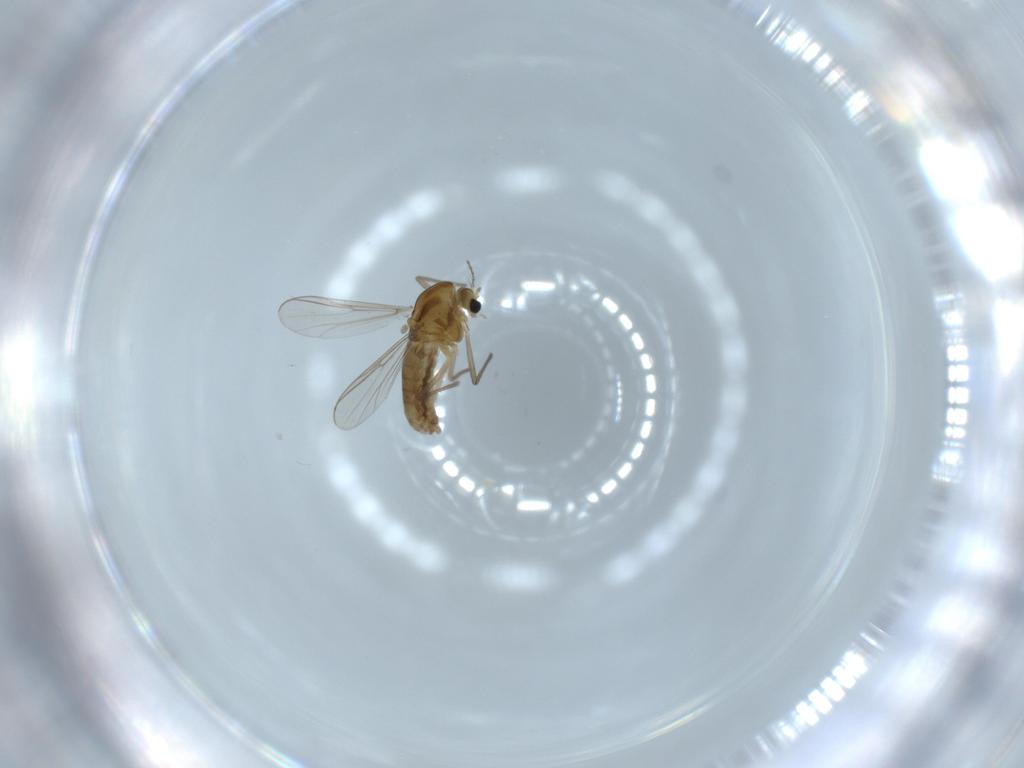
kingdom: Animalia
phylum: Arthropoda
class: Insecta
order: Diptera
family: Chironomidae
